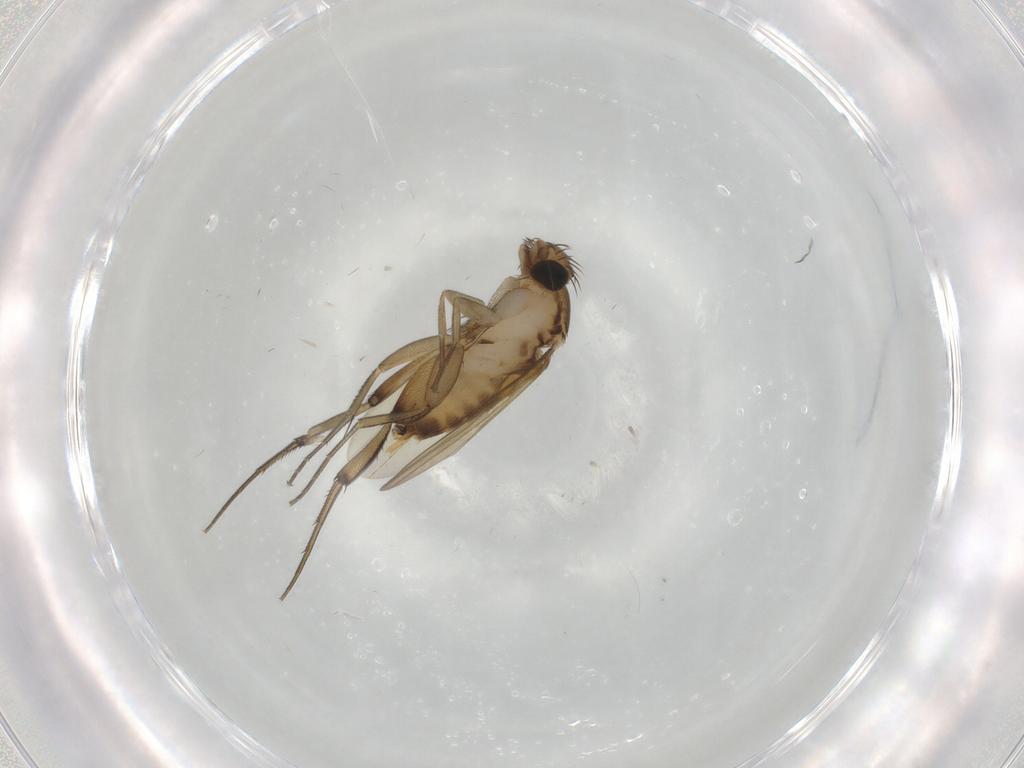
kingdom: Animalia
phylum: Arthropoda
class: Insecta
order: Diptera
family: Phoridae
